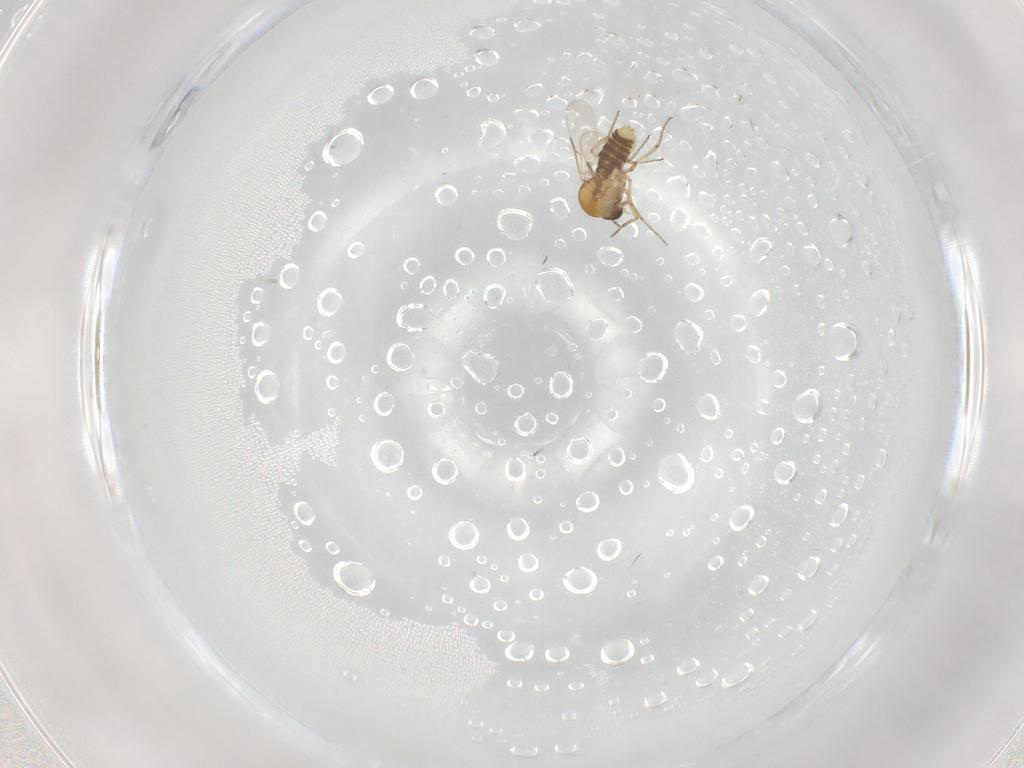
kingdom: Animalia
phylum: Arthropoda
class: Insecta
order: Diptera
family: Ceratopogonidae
